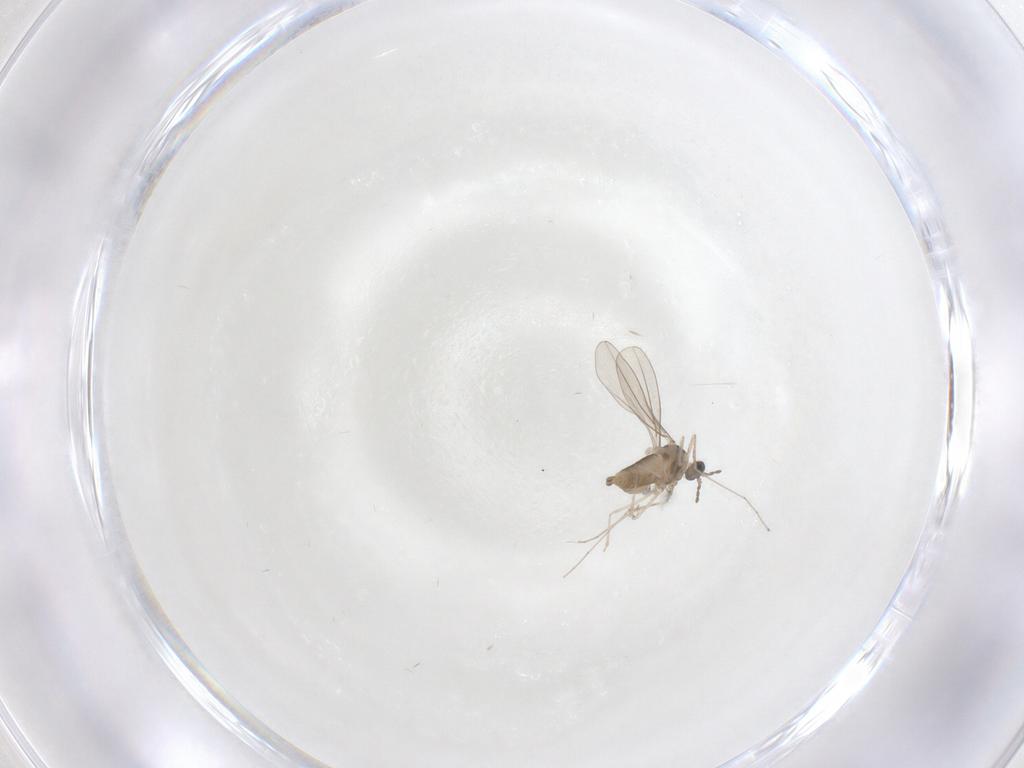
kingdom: Animalia
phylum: Arthropoda
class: Insecta
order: Diptera
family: Cecidomyiidae
